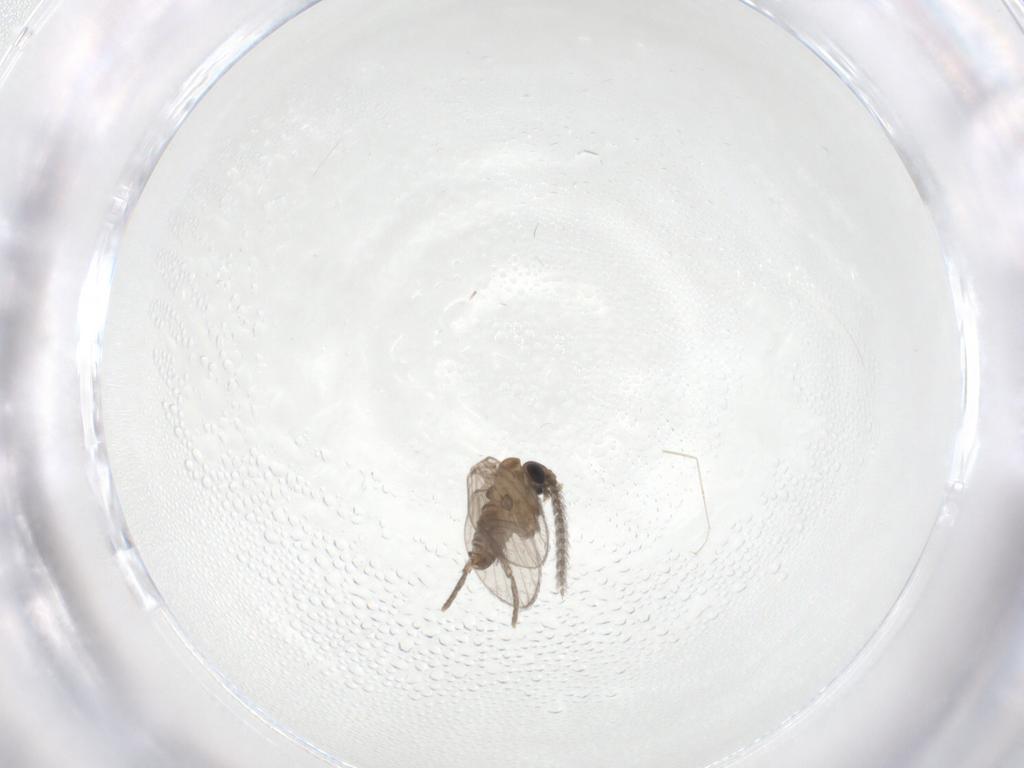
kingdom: Animalia
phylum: Arthropoda
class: Insecta
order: Diptera
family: Cecidomyiidae
